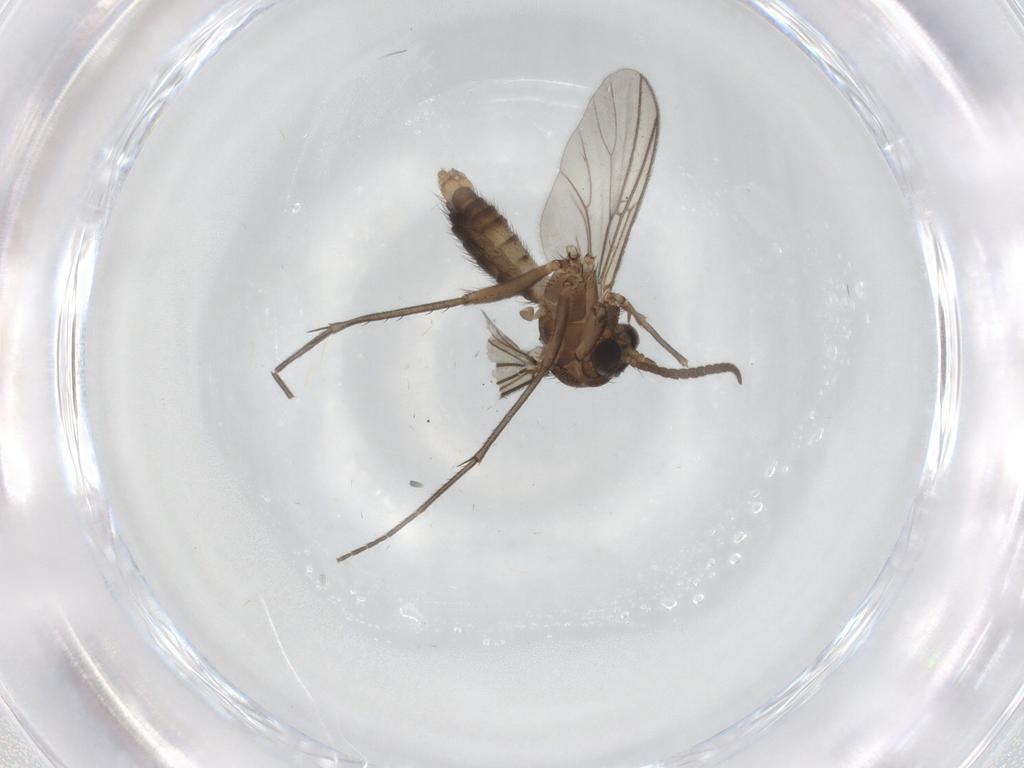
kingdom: Animalia
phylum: Arthropoda
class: Insecta
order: Diptera
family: Mycetophilidae
